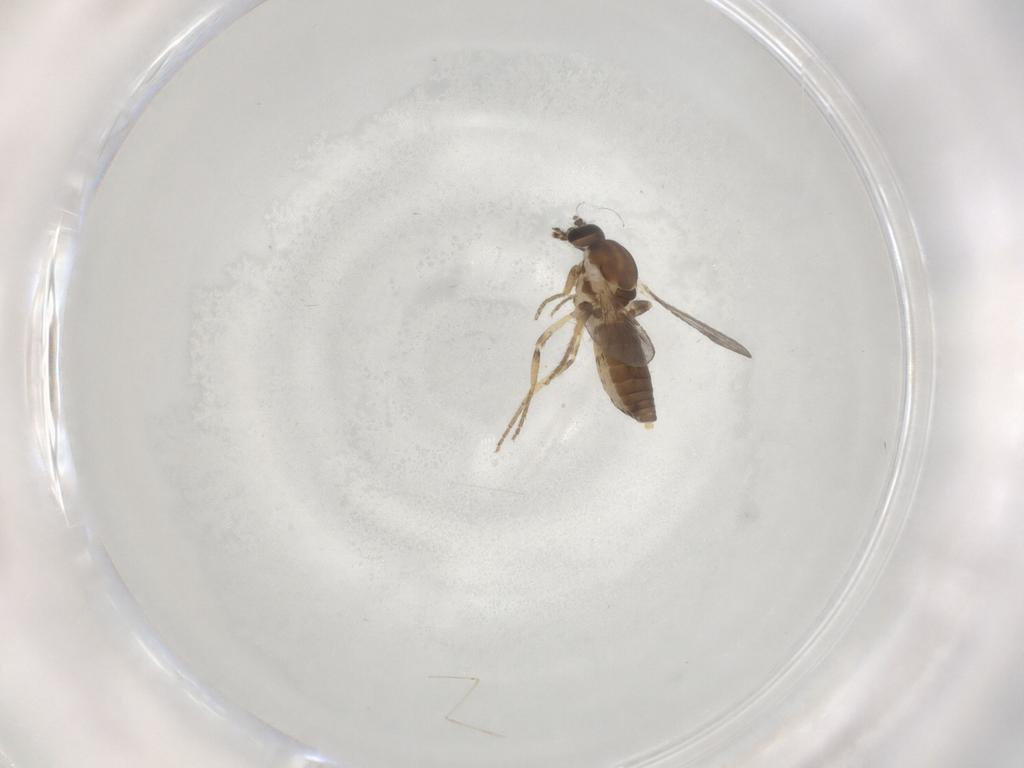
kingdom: Animalia
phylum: Arthropoda
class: Insecta
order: Diptera
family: Ceratopogonidae
